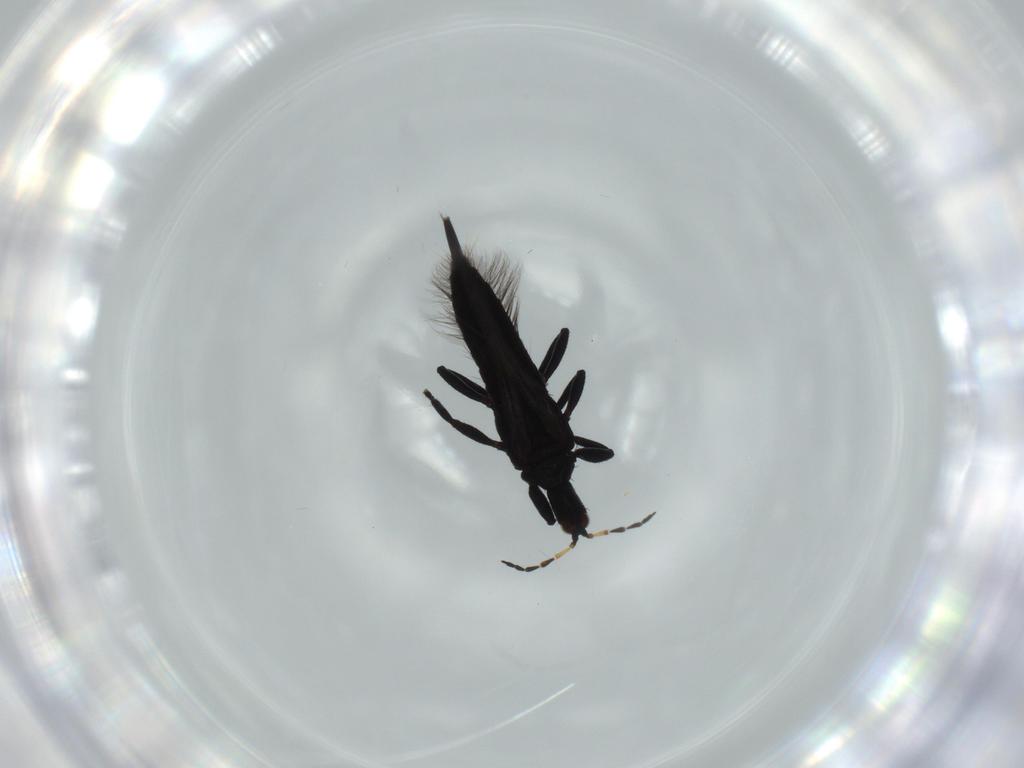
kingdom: Animalia
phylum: Arthropoda
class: Insecta
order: Thysanoptera
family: Phlaeothripidae
